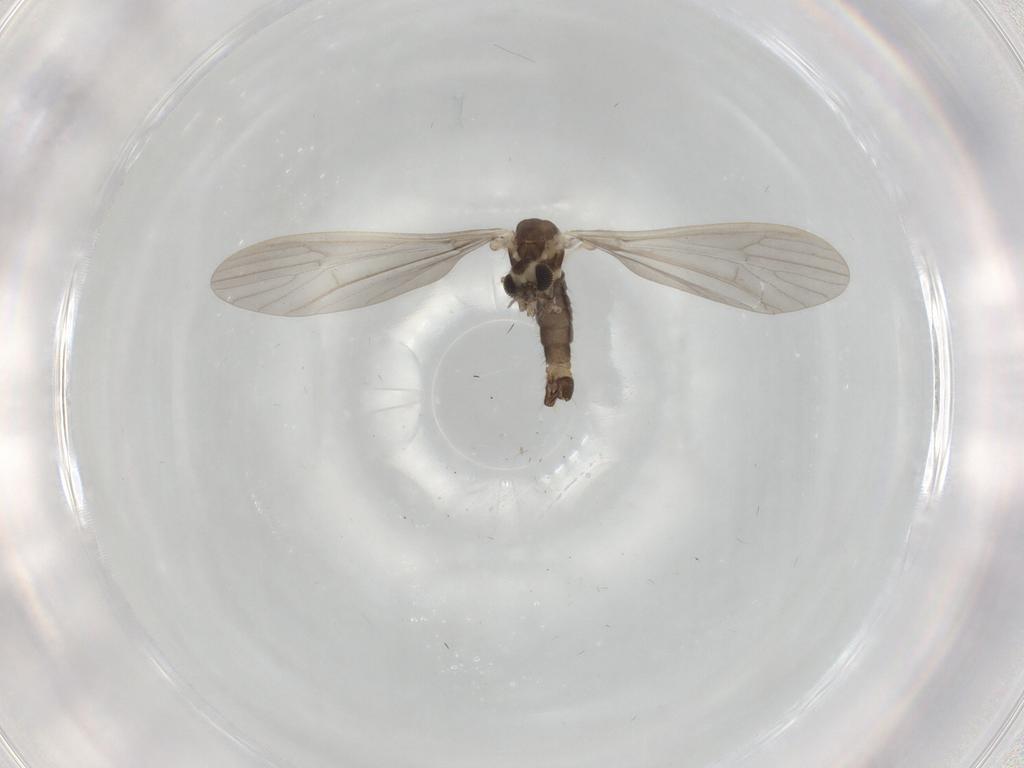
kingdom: Animalia
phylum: Arthropoda
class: Insecta
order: Diptera
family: Limoniidae
